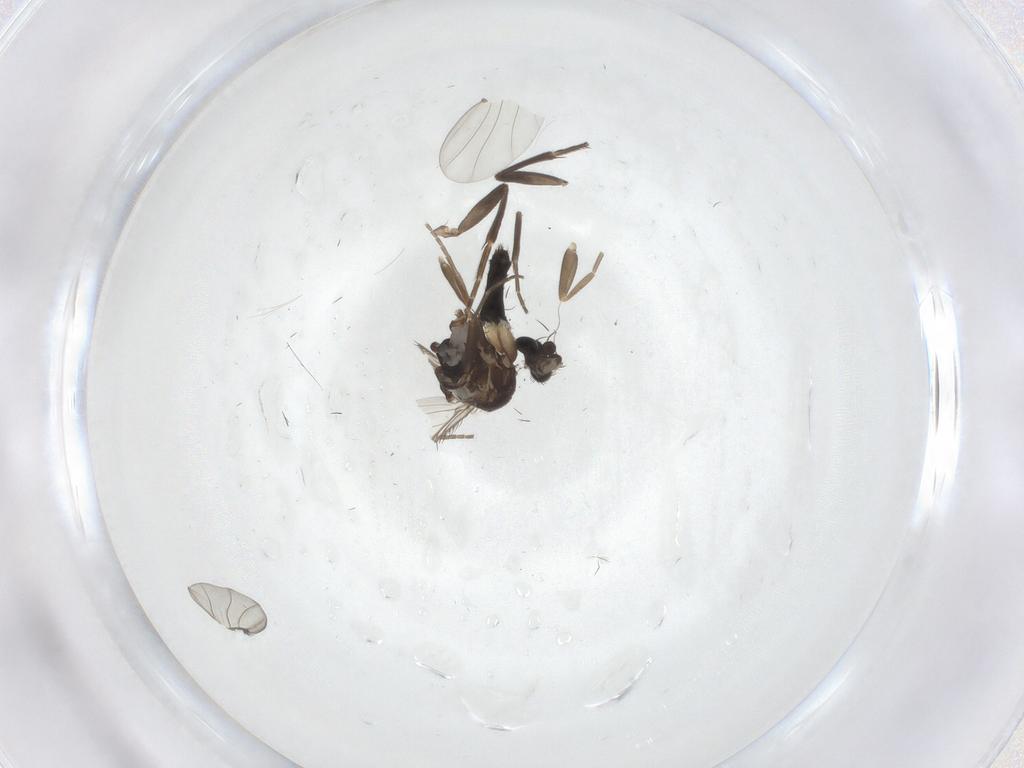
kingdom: Animalia
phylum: Arthropoda
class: Insecta
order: Diptera
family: Phoridae
